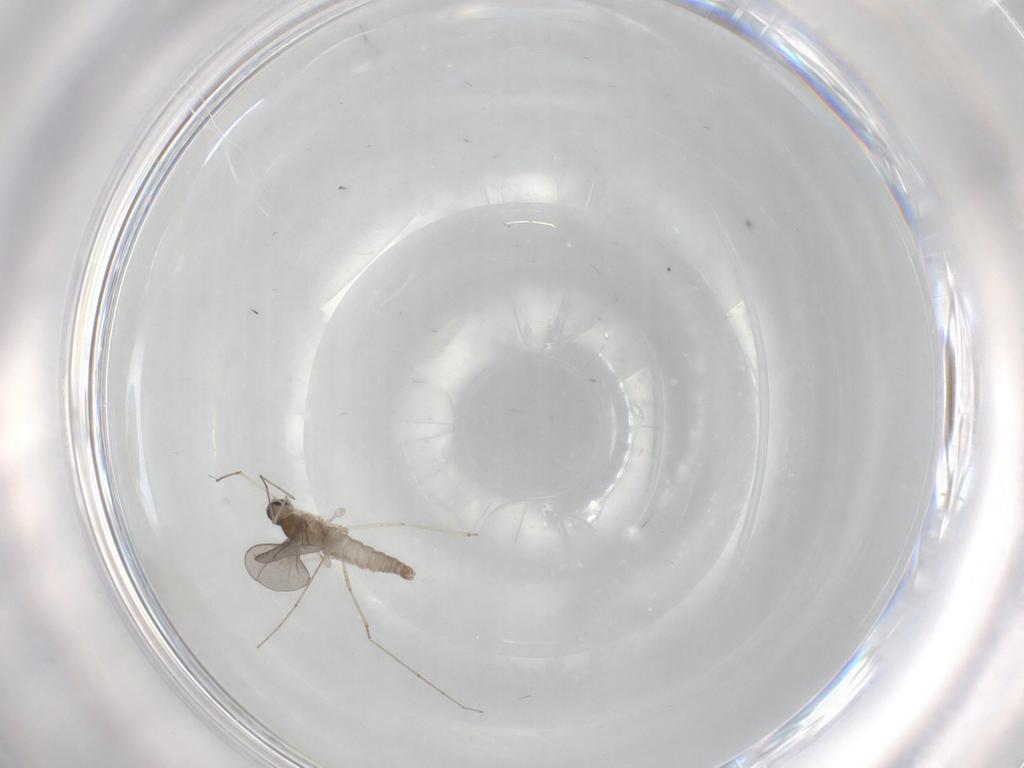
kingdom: Animalia
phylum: Arthropoda
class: Insecta
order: Diptera
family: Cecidomyiidae
